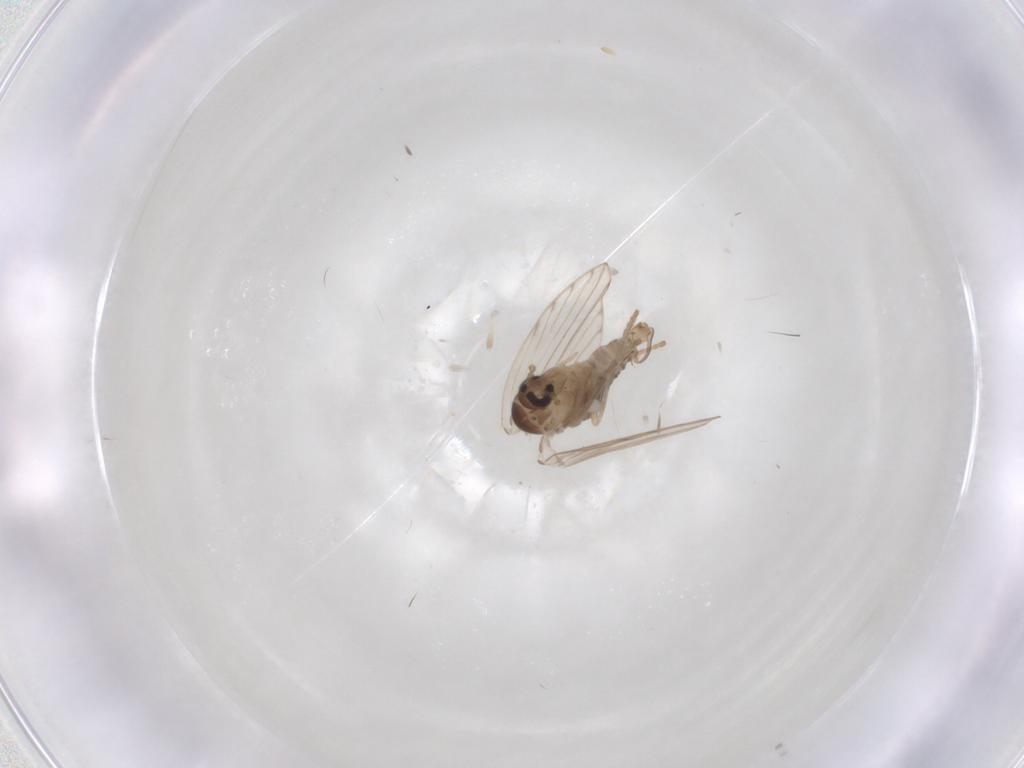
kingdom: Animalia
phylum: Arthropoda
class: Insecta
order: Diptera
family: Psychodidae
